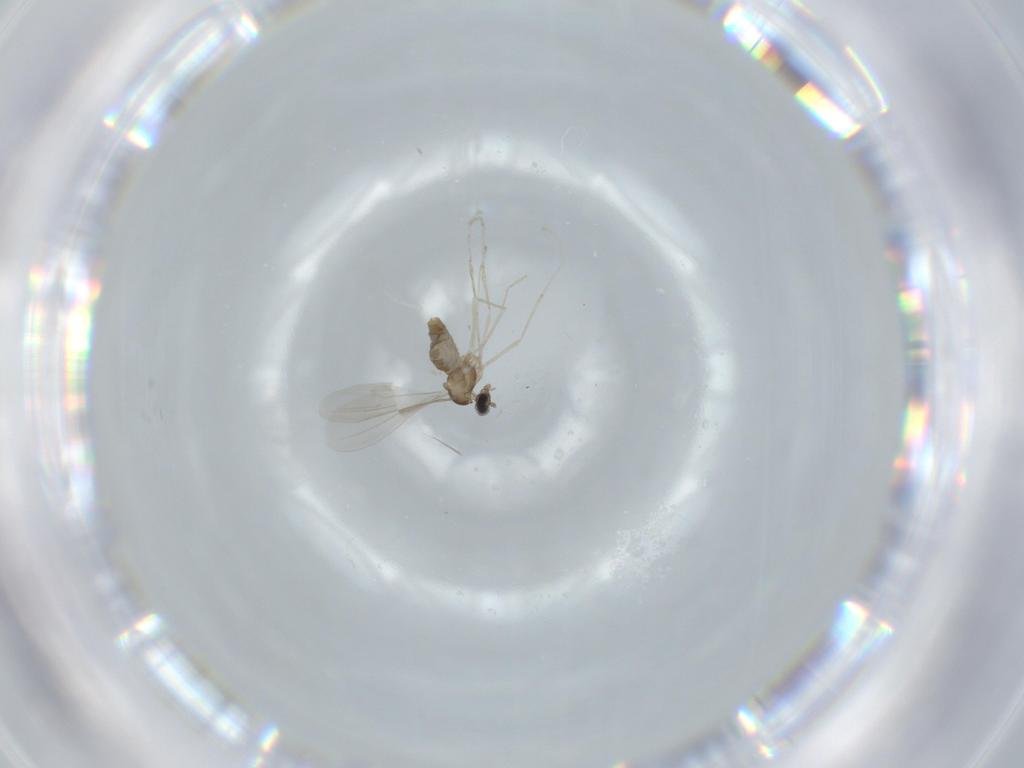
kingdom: Animalia
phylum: Arthropoda
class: Insecta
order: Diptera
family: Cecidomyiidae
